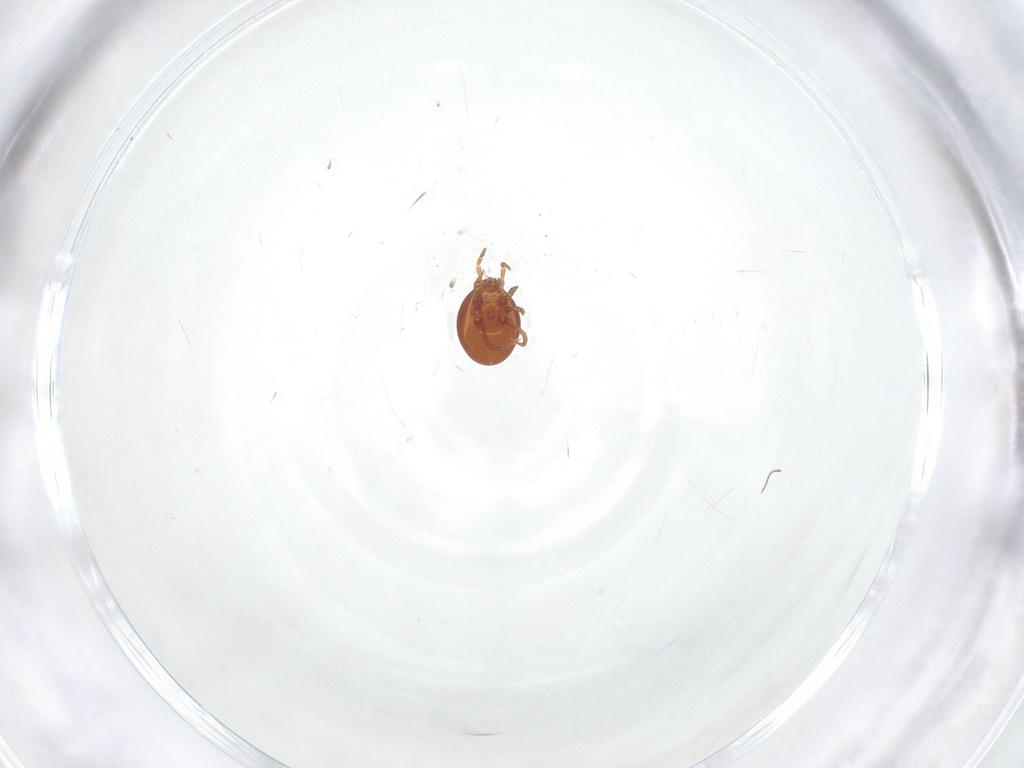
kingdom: Animalia
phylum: Arthropoda
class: Arachnida
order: Mesostigmata
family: Parasitidae
